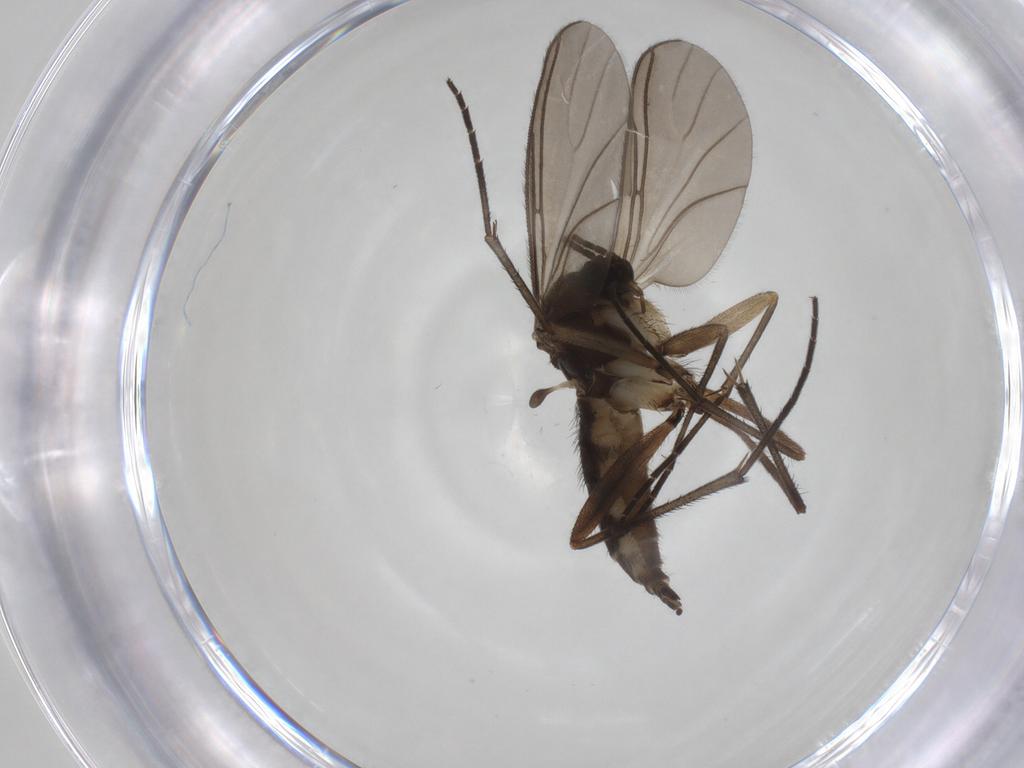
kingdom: Animalia
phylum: Arthropoda
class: Insecta
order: Diptera
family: Sciaridae
